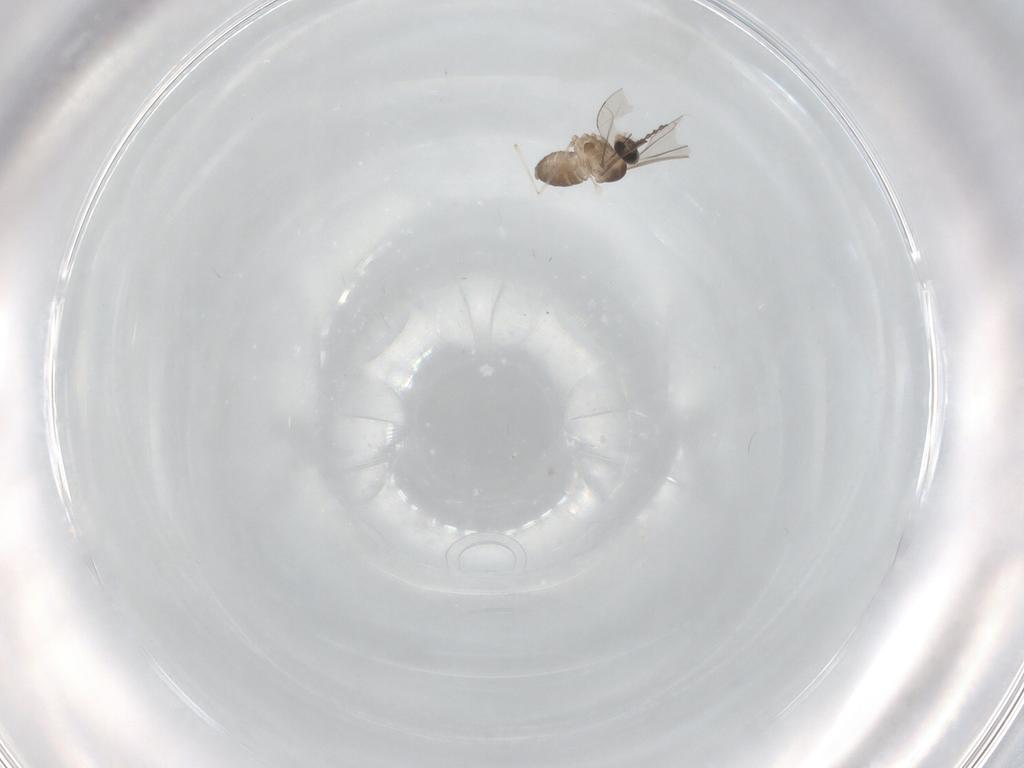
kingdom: Animalia
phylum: Arthropoda
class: Insecta
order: Diptera
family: Cecidomyiidae
